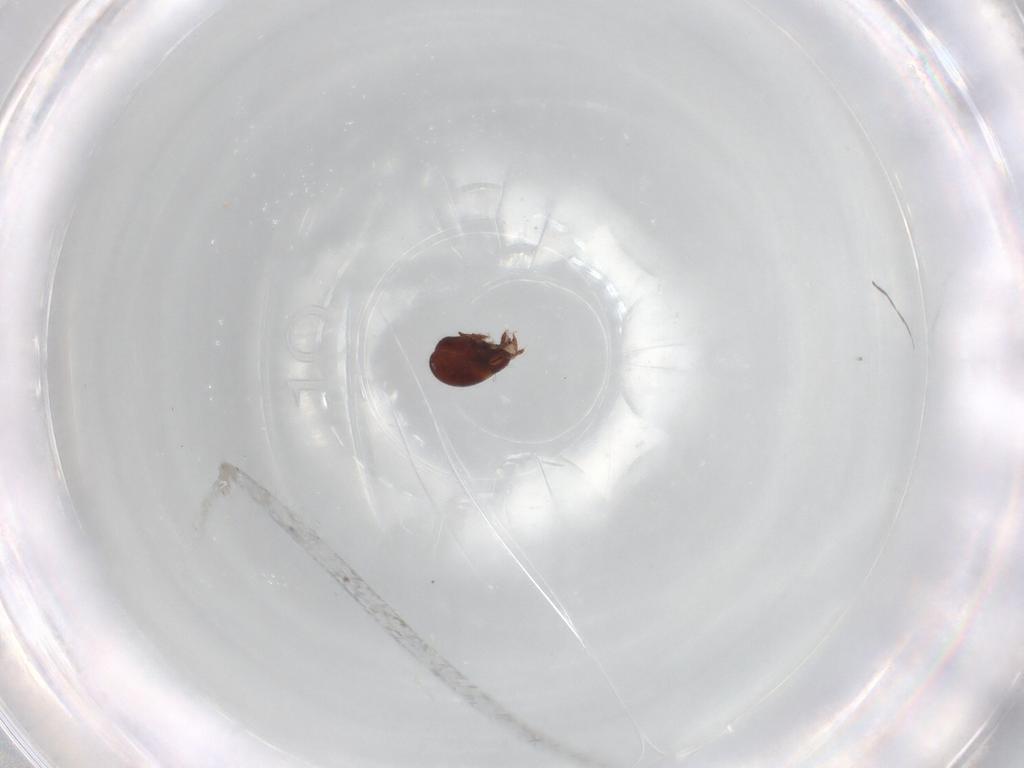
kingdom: Animalia
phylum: Arthropoda
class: Arachnida
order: Sarcoptiformes
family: Humerobatidae
